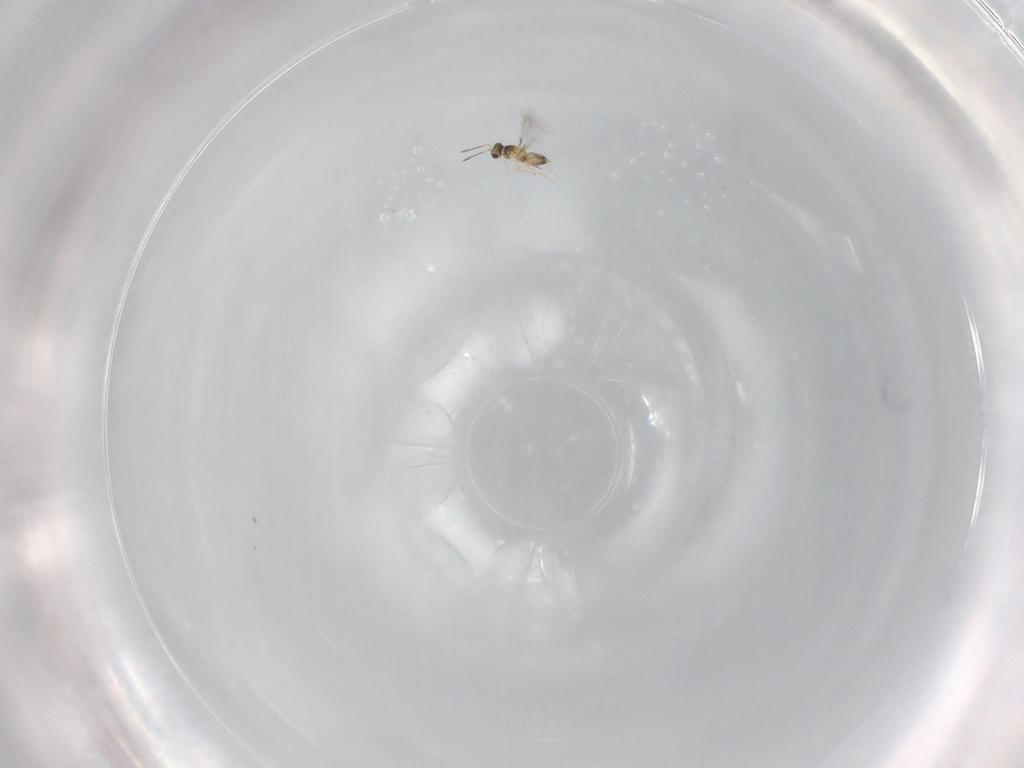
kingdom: Animalia
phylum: Arthropoda
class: Insecta
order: Hymenoptera
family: Mymaridae
